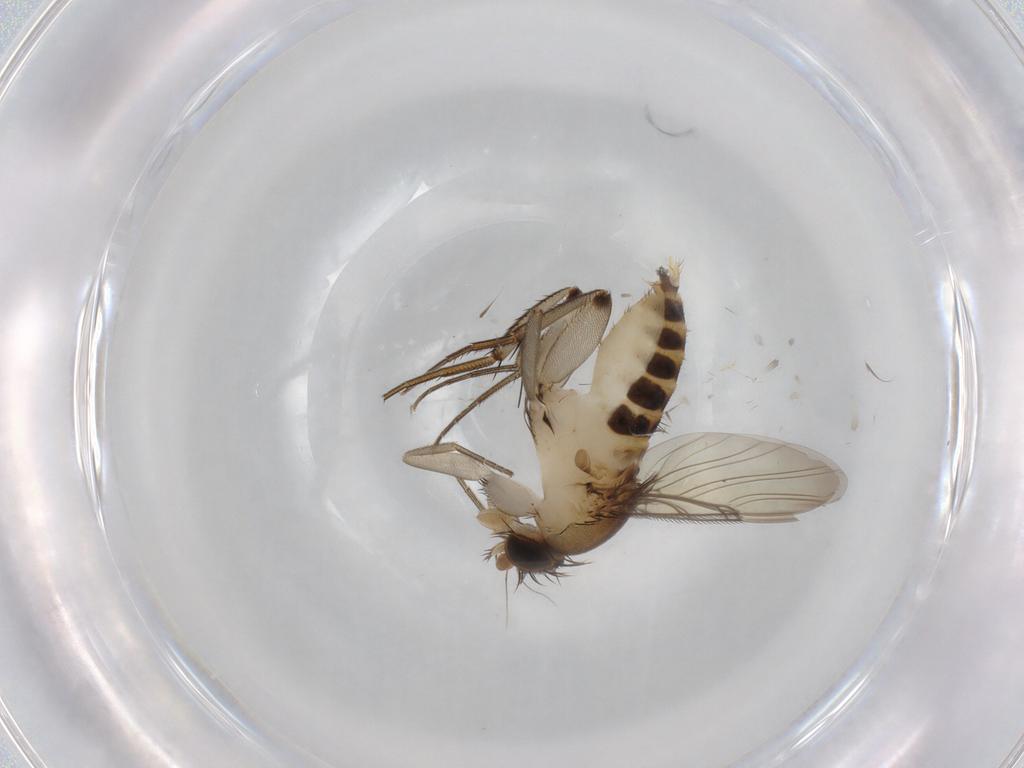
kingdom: Animalia
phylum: Arthropoda
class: Insecta
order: Diptera
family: Phoridae
